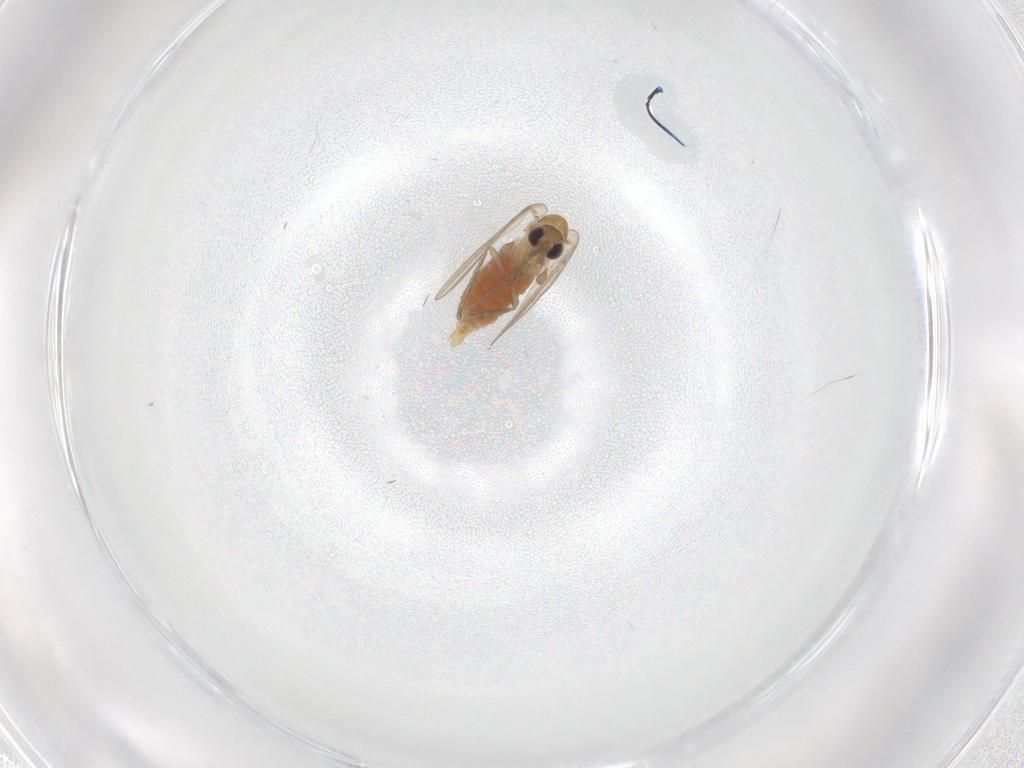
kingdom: Animalia
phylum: Arthropoda
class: Insecta
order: Diptera
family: Psychodidae
